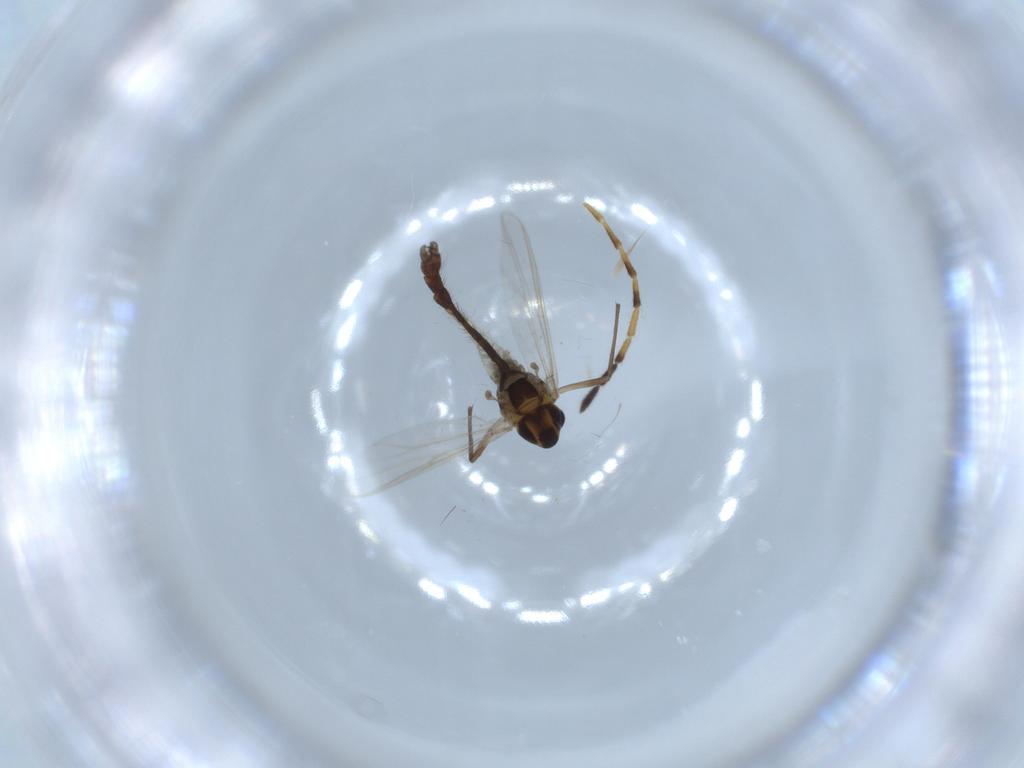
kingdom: Animalia
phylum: Arthropoda
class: Insecta
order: Diptera
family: Chironomidae
